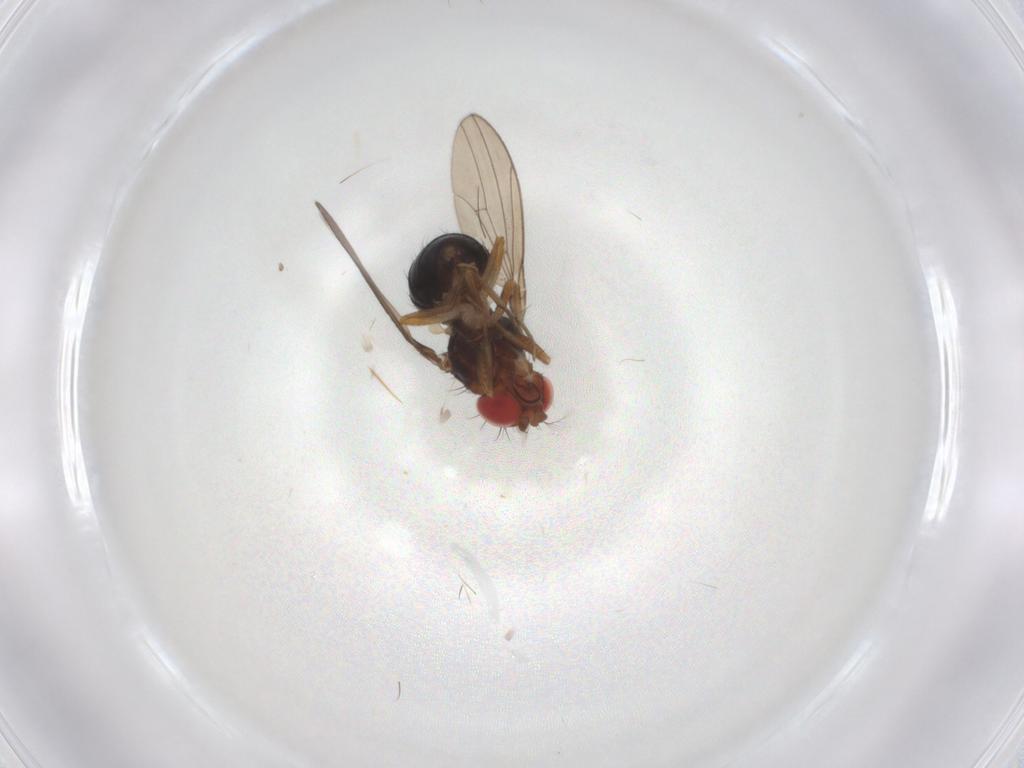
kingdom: Animalia
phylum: Arthropoda
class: Insecta
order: Diptera
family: Drosophilidae
